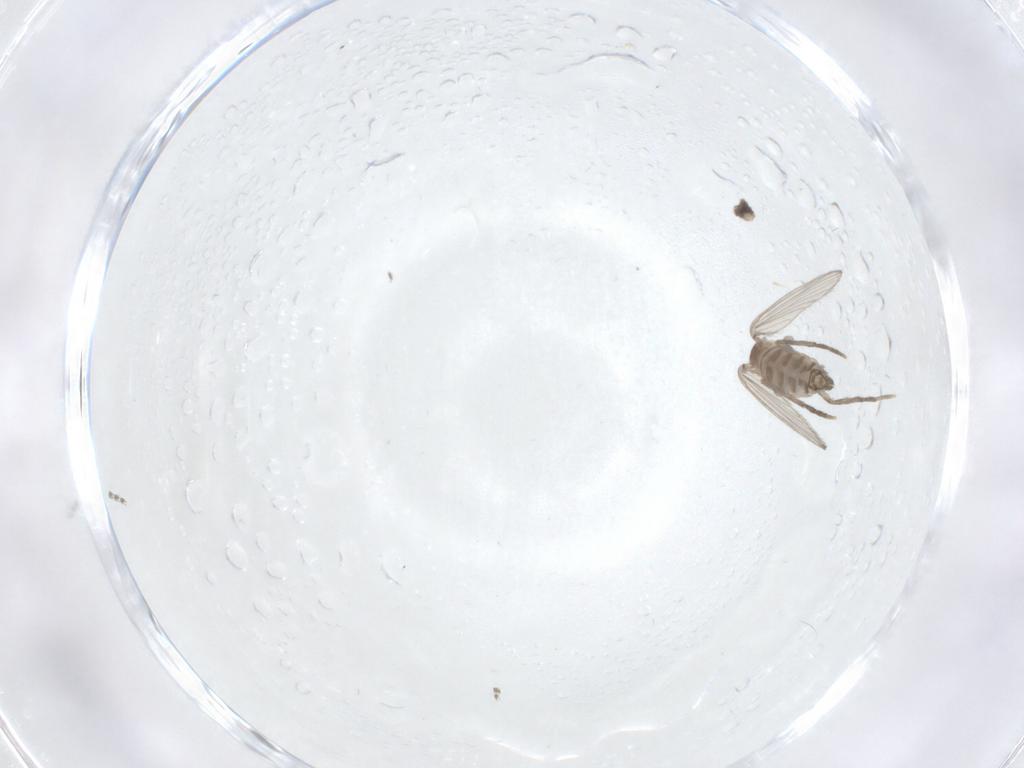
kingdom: Animalia
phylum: Arthropoda
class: Insecta
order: Diptera
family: Psychodidae
